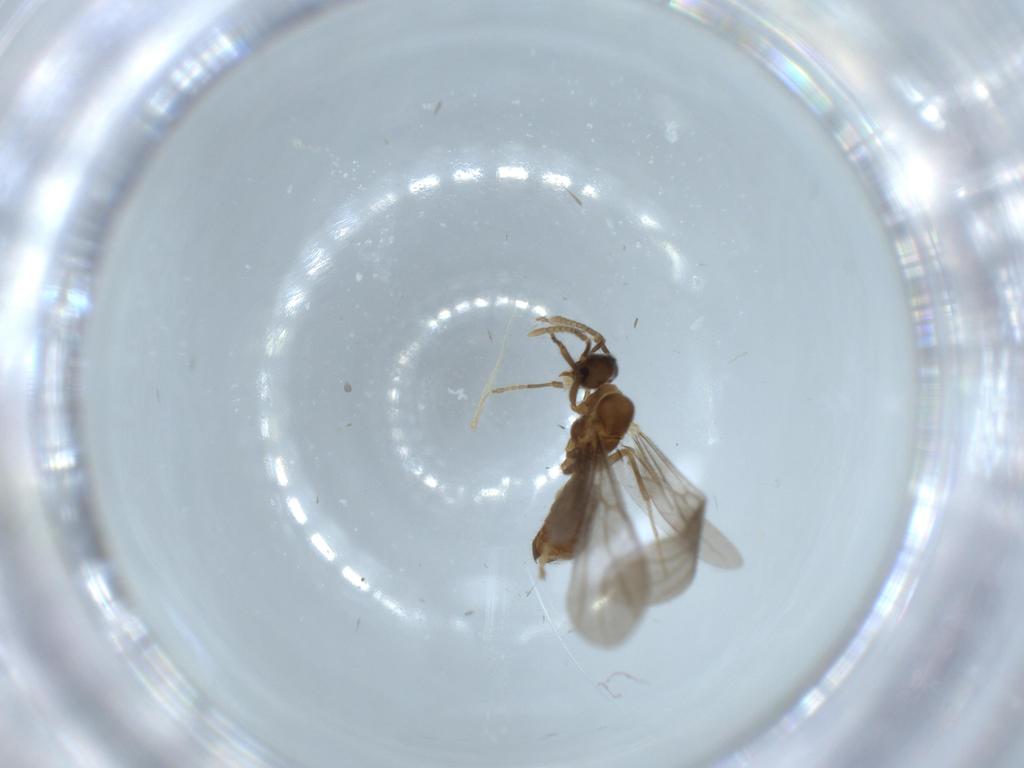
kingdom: Animalia
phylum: Arthropoda
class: Insecta
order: Hymenoptera
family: Formicidae
